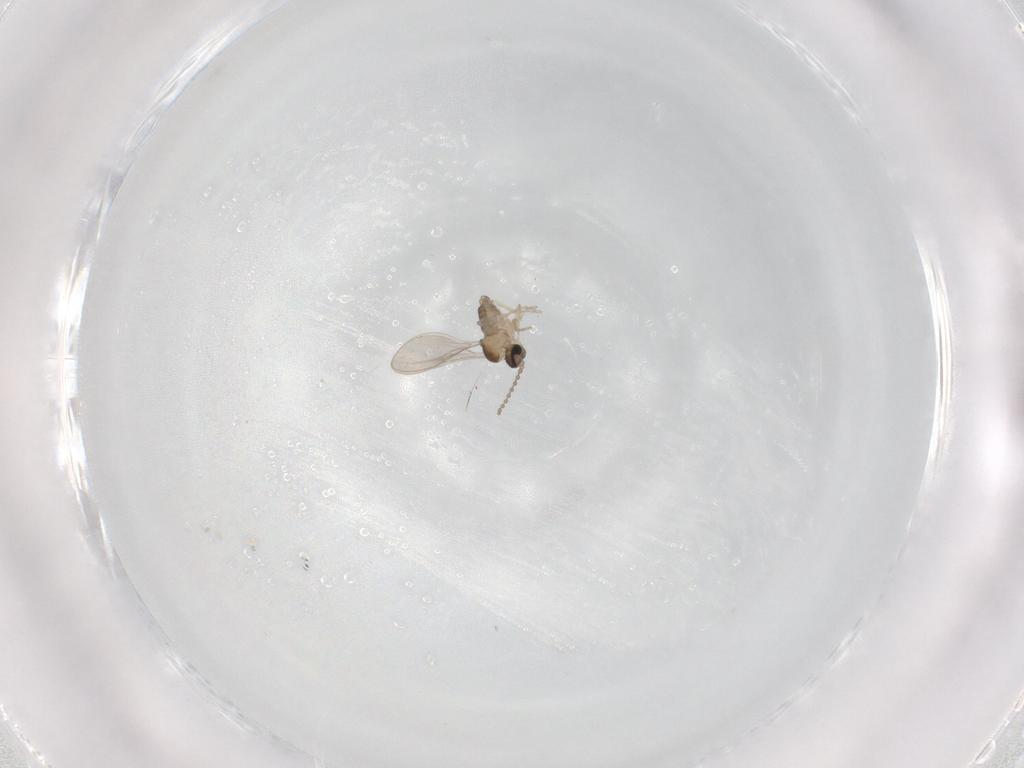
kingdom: Animalia
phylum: Arthropoda
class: Insecta
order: Diptera
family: Cecidomyiidae
